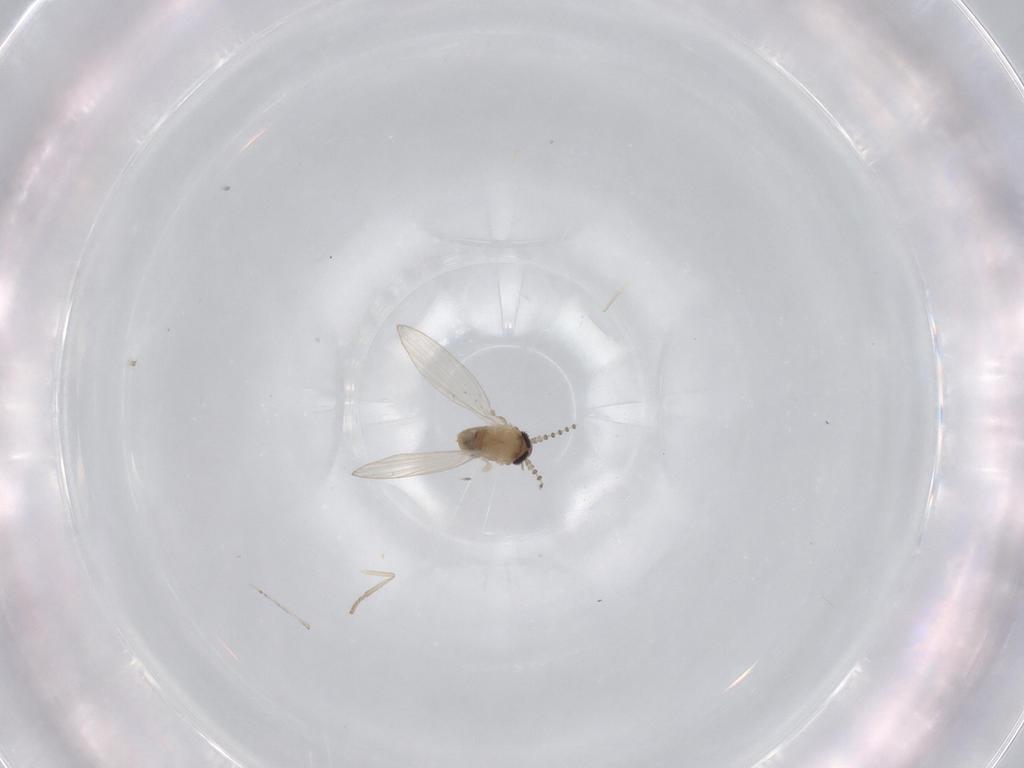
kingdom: Animalia
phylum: Arthropoda
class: Insecta
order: Diptera
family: Psychodidae
